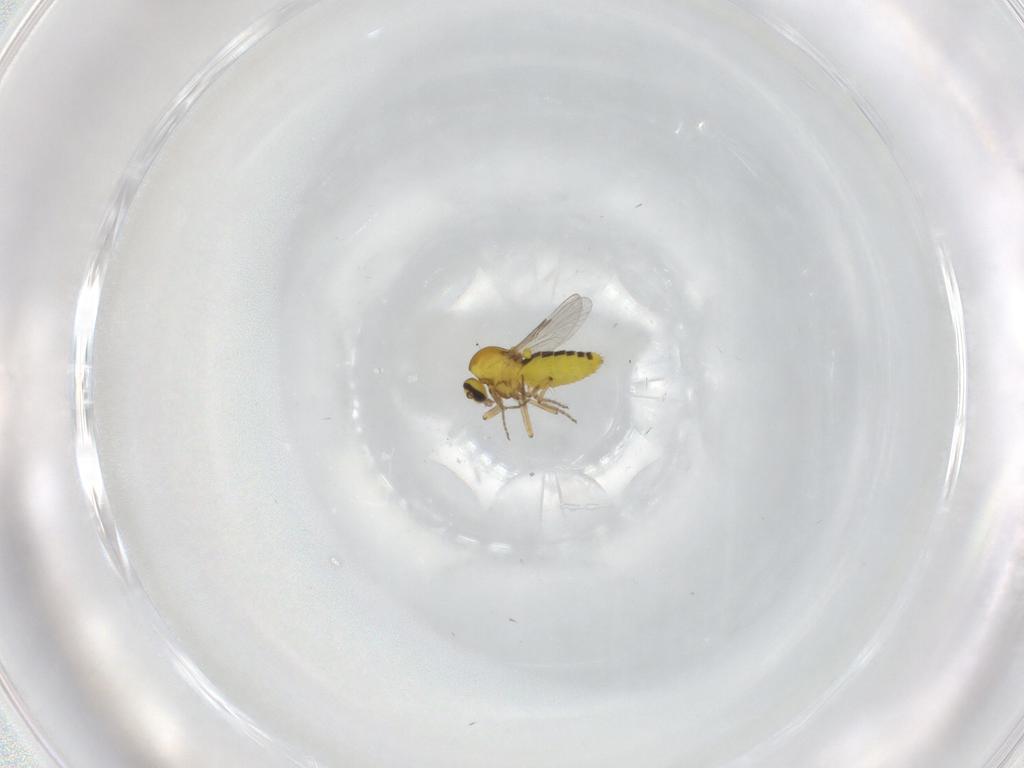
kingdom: Animalia
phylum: Arthropoda
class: Insecta
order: Diptera
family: Ceratopogonidae
